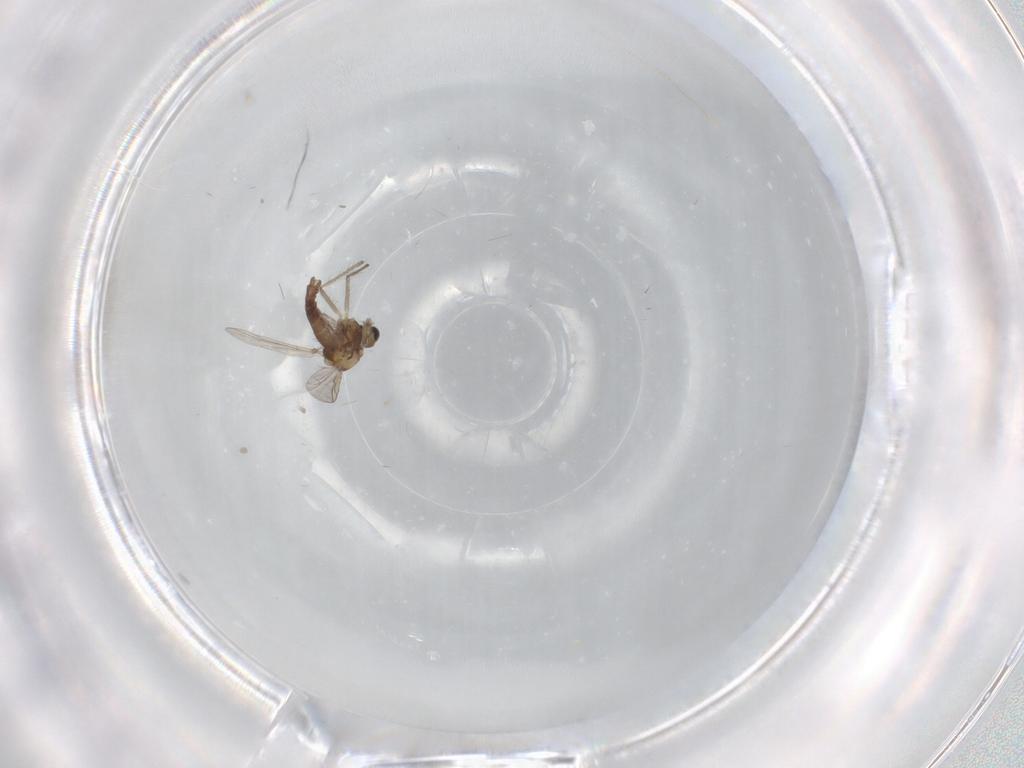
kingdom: Animalia
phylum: Arthropoda
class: Insecta
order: Diptera
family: Chironomidae
